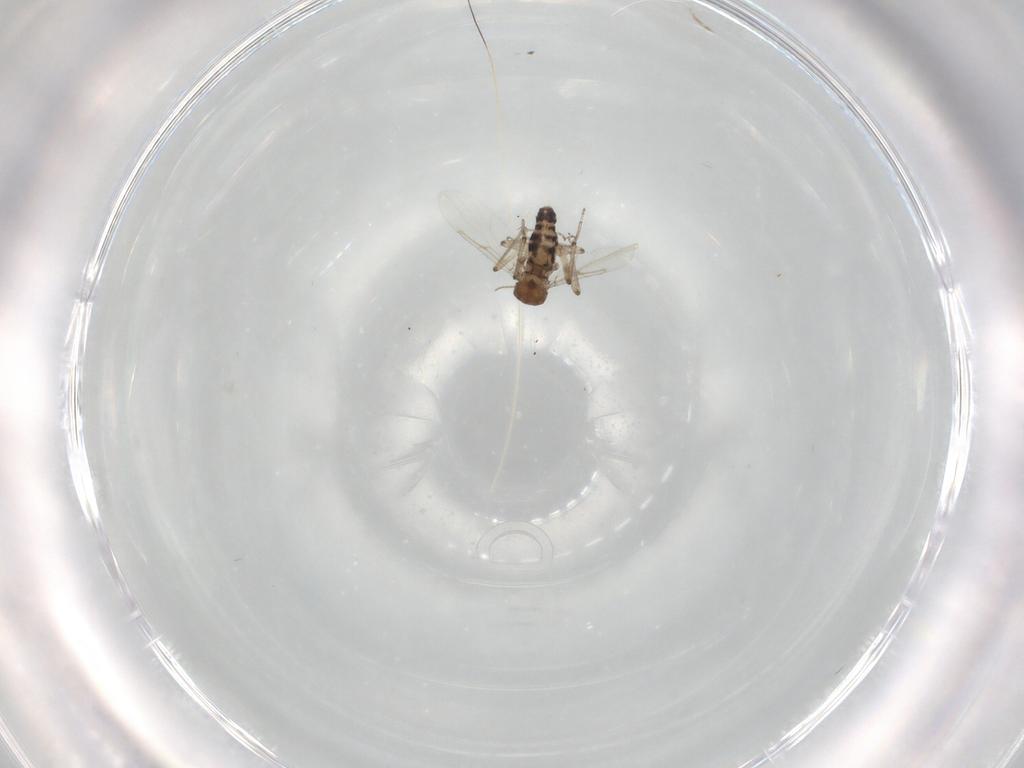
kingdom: Animalia
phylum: Arthropoda
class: Insecta
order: Diptera
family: Ceratopogonidae
